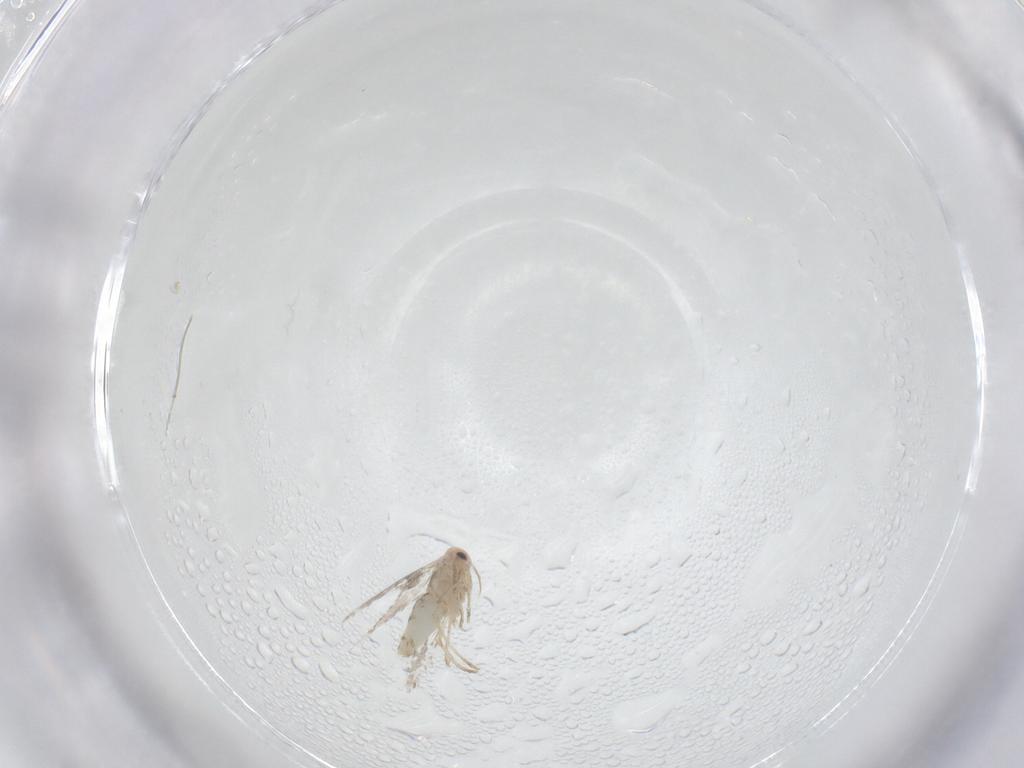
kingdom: Animalia
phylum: Arthropoda
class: Insecta
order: Lepidoptera
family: Gracillariidae
